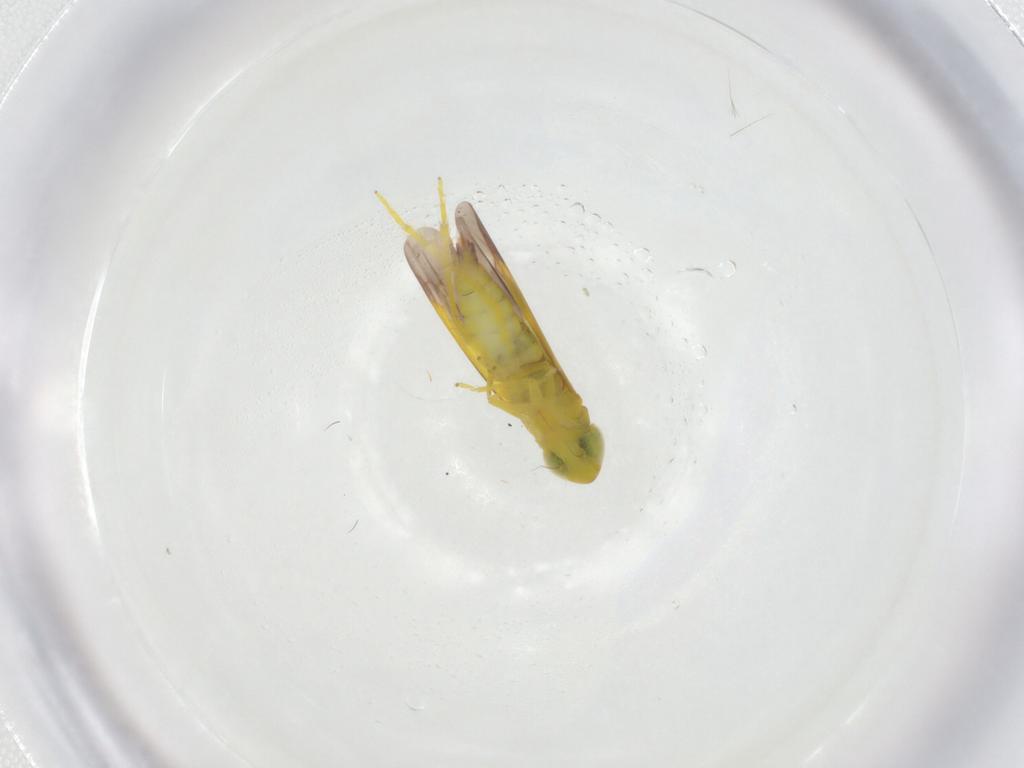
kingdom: Animalia
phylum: Arthropoda
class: Insecta
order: Hemiptera
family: Cicadellidae
